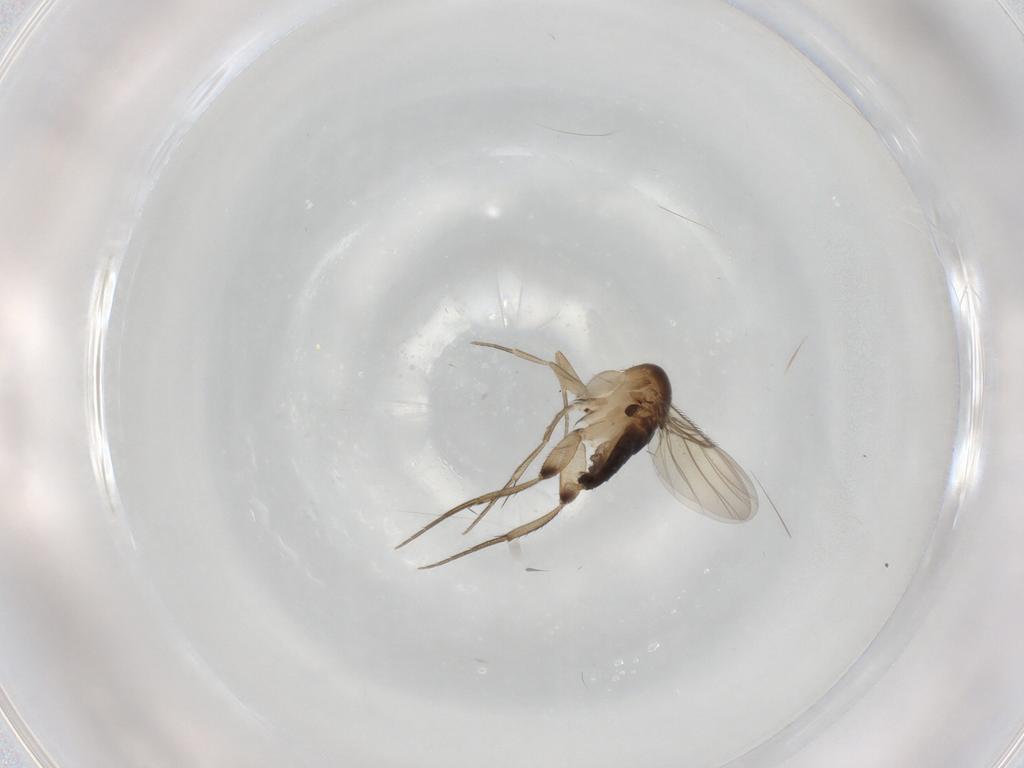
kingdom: Animalia
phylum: Arthropoda
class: Insecta
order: Diptera
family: Phoridae
